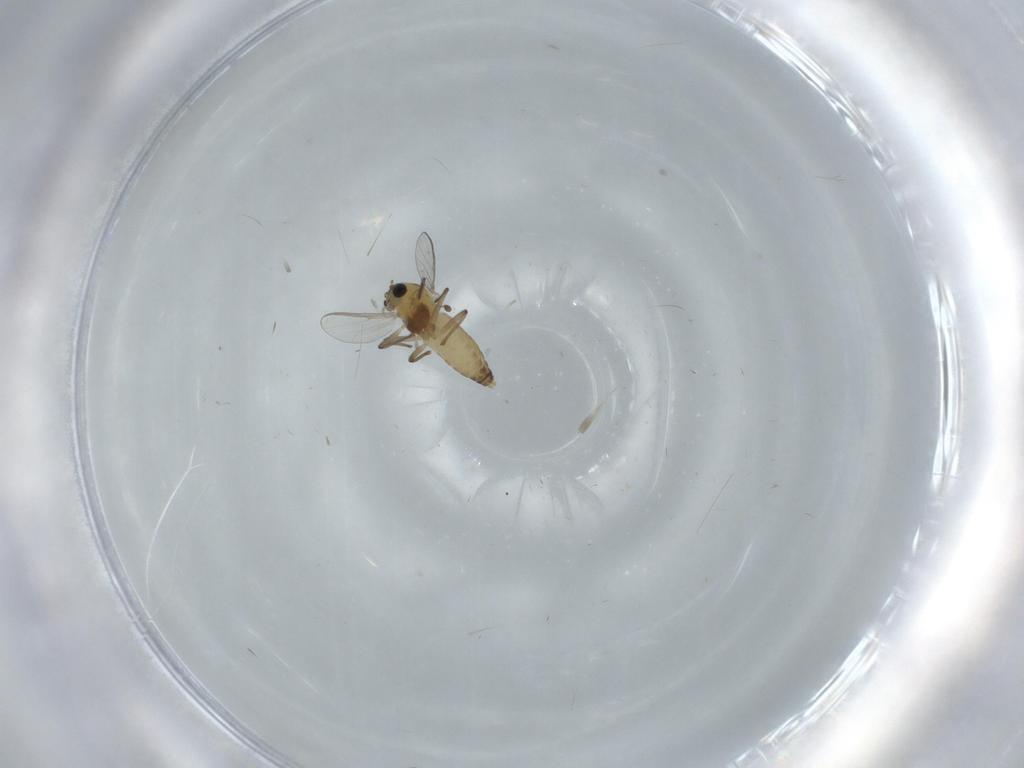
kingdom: Animalia
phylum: Arthropoda
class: Insecta
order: Diptera
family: Chironomidae
